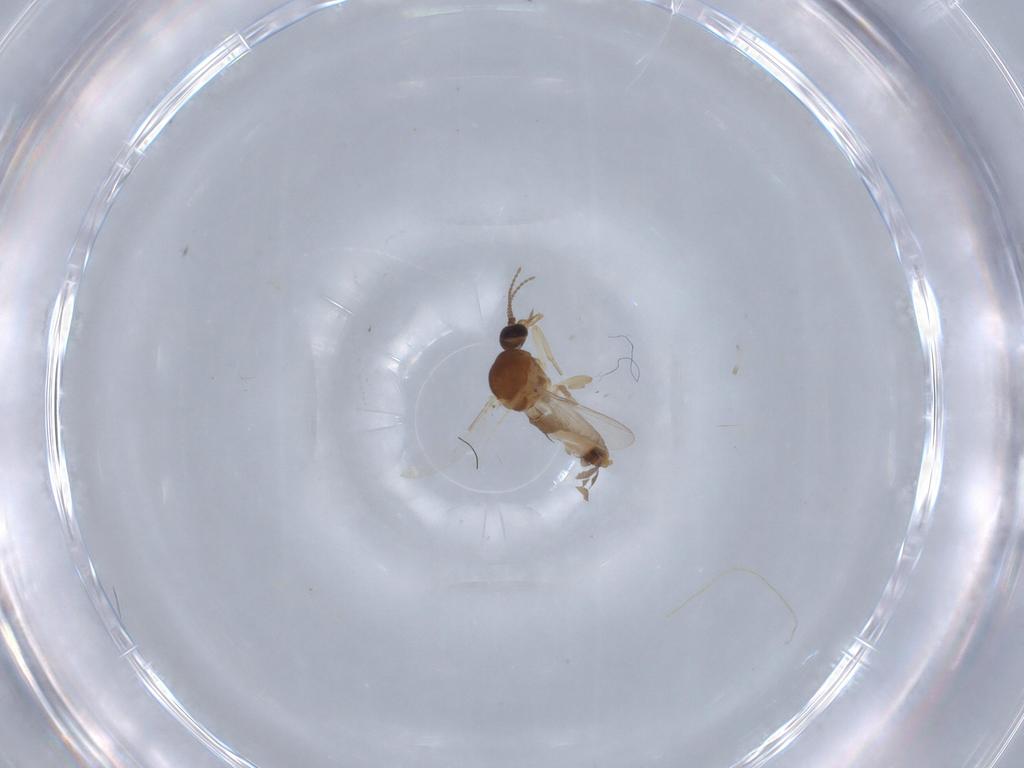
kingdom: Animalia
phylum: Arthropoda
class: Insecta
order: Diptera
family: Ceratopogonidae
